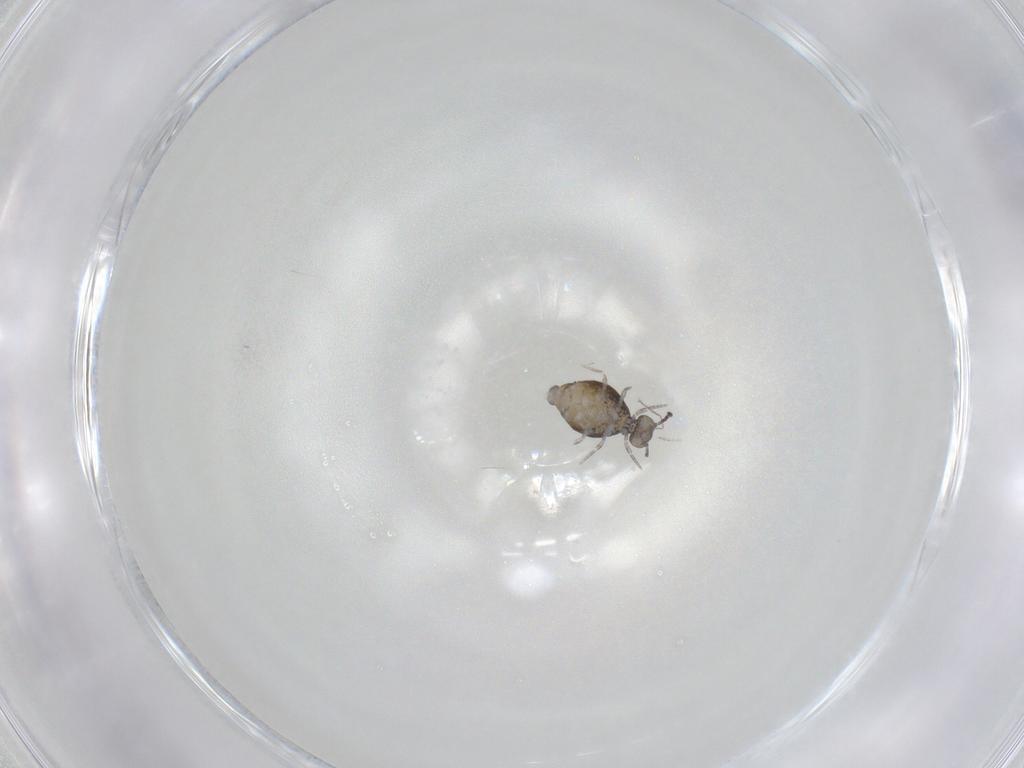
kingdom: Animalia
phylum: Arthropoda
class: Collembola
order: Symphypleona
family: Katiannidae
